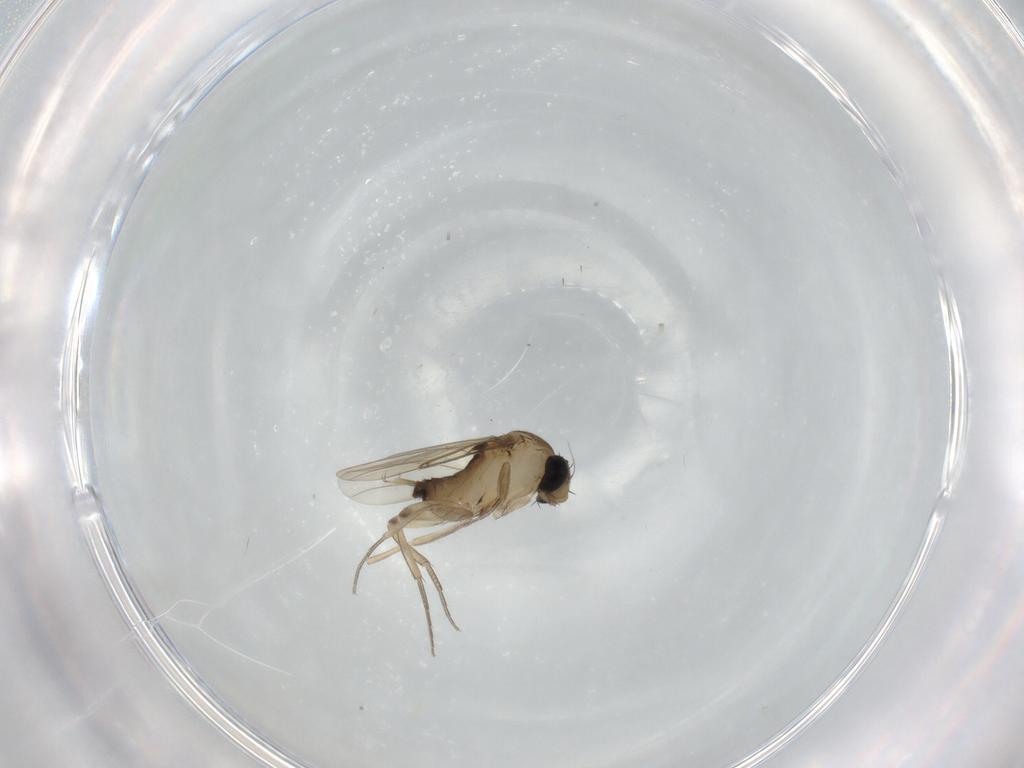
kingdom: Animalia
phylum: Arthropoda
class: Insecta
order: Diptera
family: Phoridae
